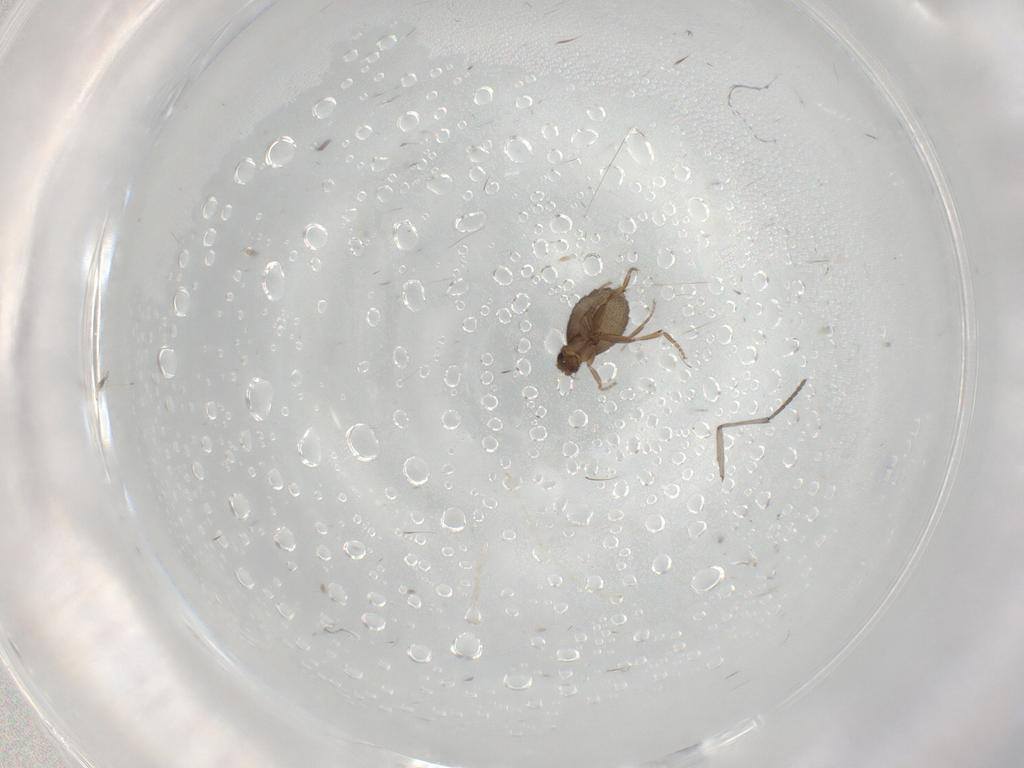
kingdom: Animalia
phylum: Arthropoda
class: Insecta
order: Diptera
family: Phoridae
